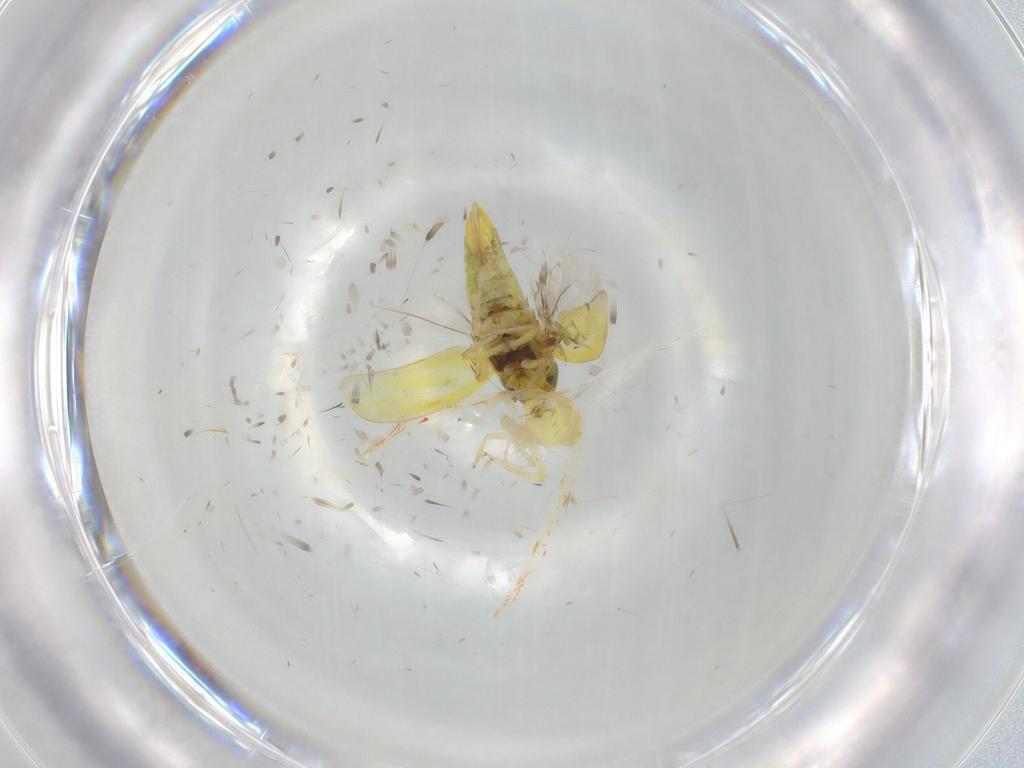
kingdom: Animalia
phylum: Arthropoda
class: Insecta
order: Hemiptera
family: Cicadellidae
